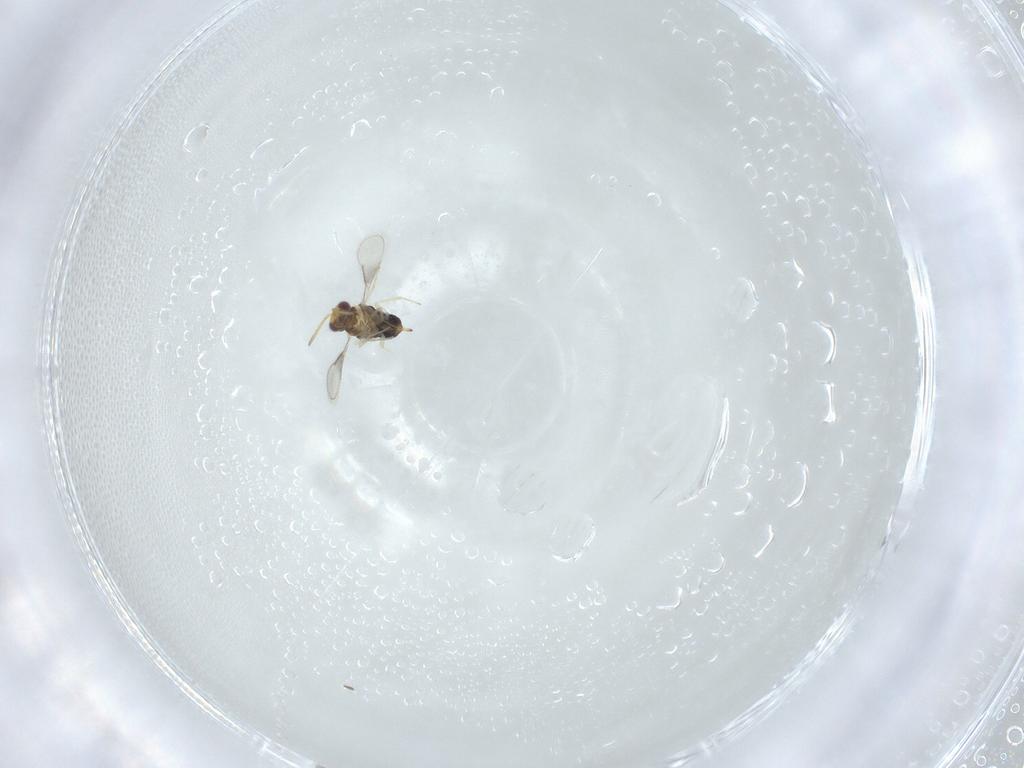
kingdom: Animalia
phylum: Arthropoda
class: Insecta
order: Hymenoptera
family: Aphelinidae
